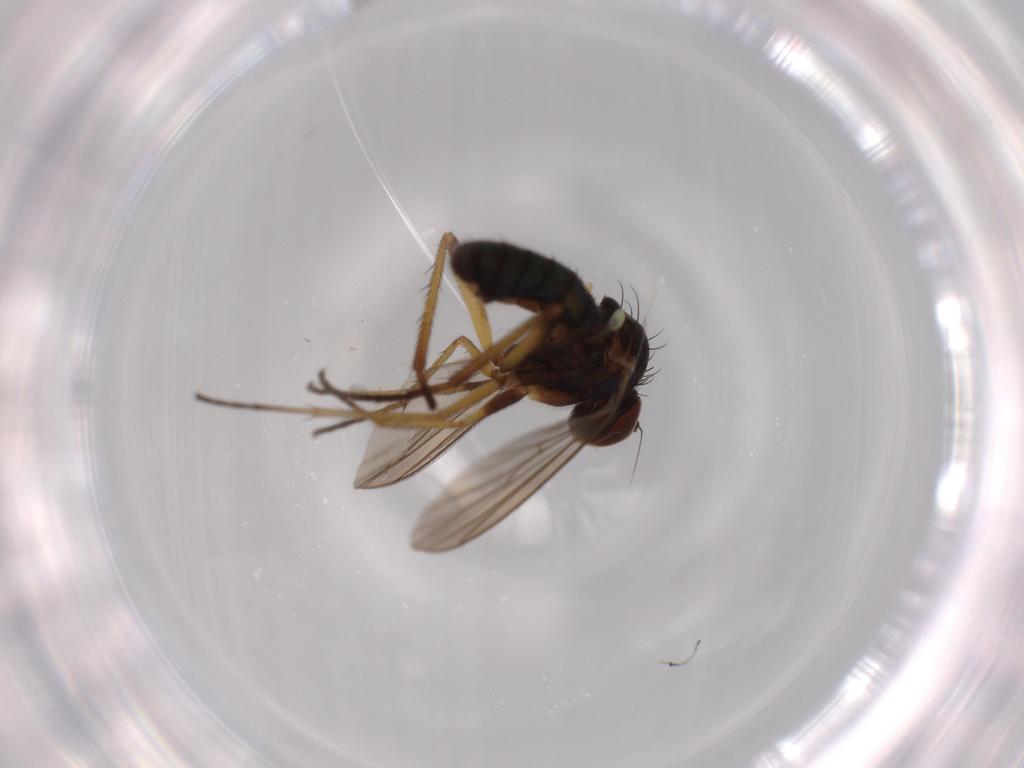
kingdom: Animalia
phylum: Arthropoda
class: Insecta
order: Diptera
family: Dolichopodidae
